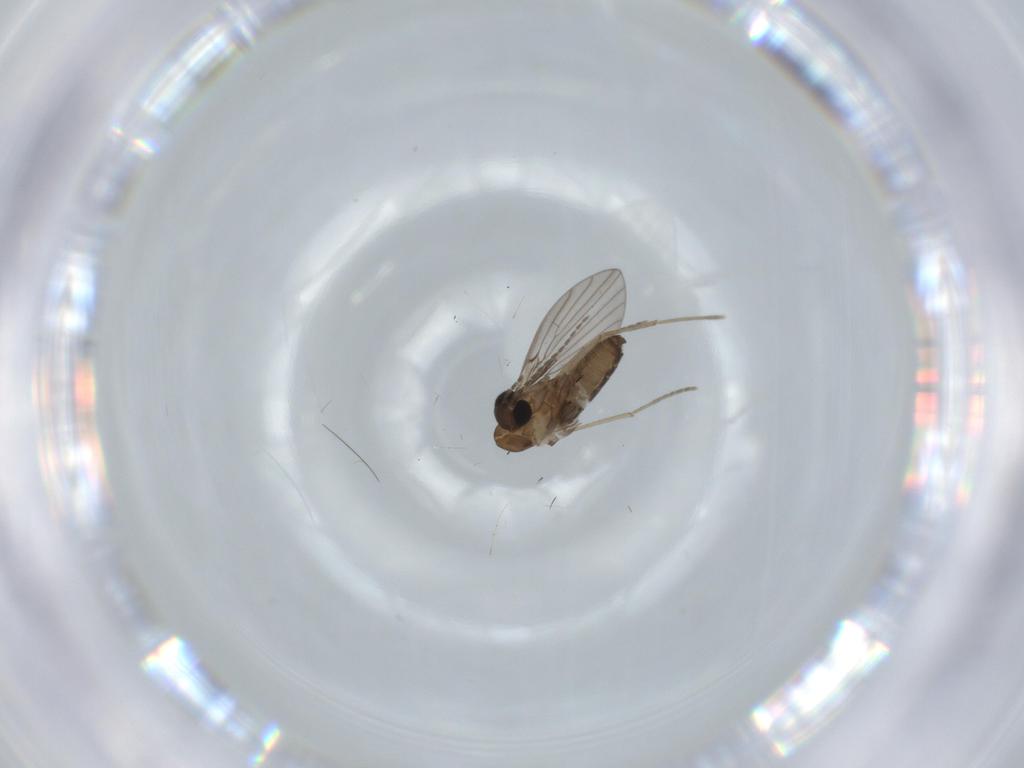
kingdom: Animalia
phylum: Arthropoda
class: Insecta
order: Diptera
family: Psychodidae
